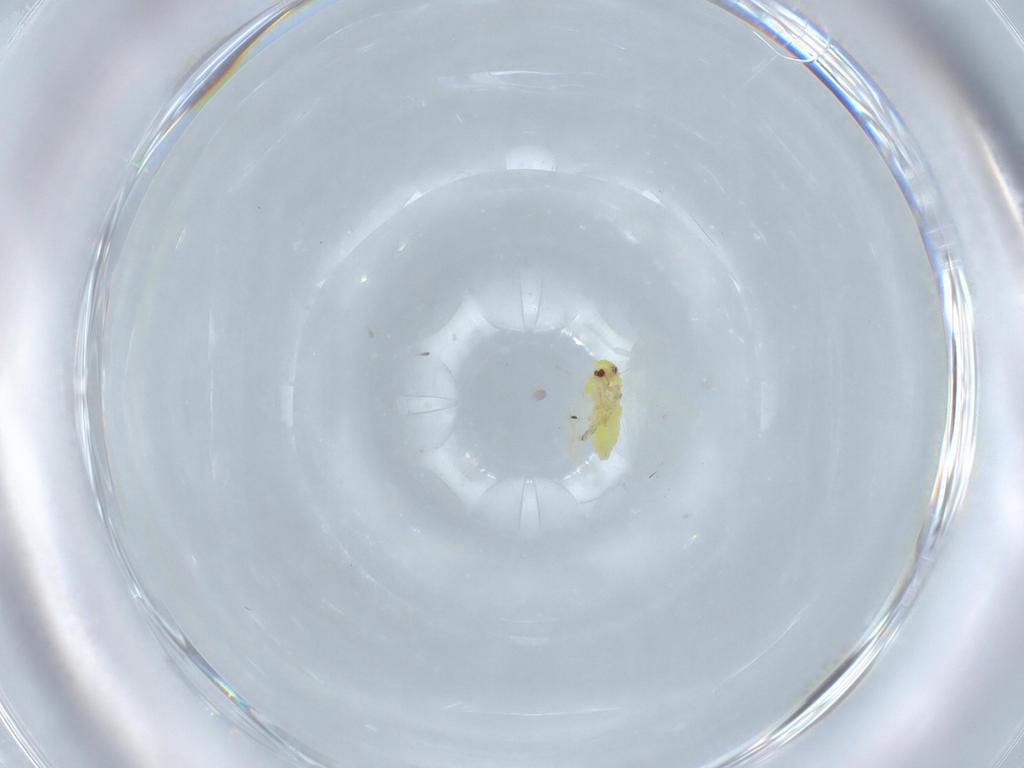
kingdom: Animalia
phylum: Arthropoda
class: Insecta
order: Hemiptera
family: Aleyrodidae
